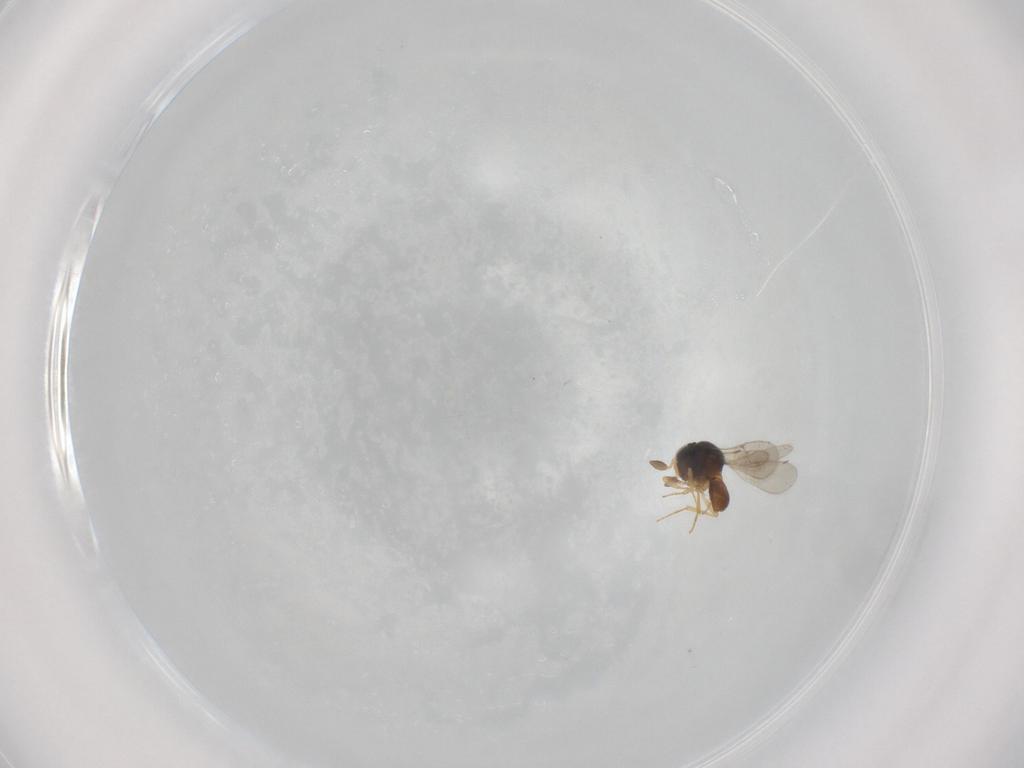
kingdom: Animalia
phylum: Arthropoda
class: Insecta
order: Hymenoptera
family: Scelionidae
